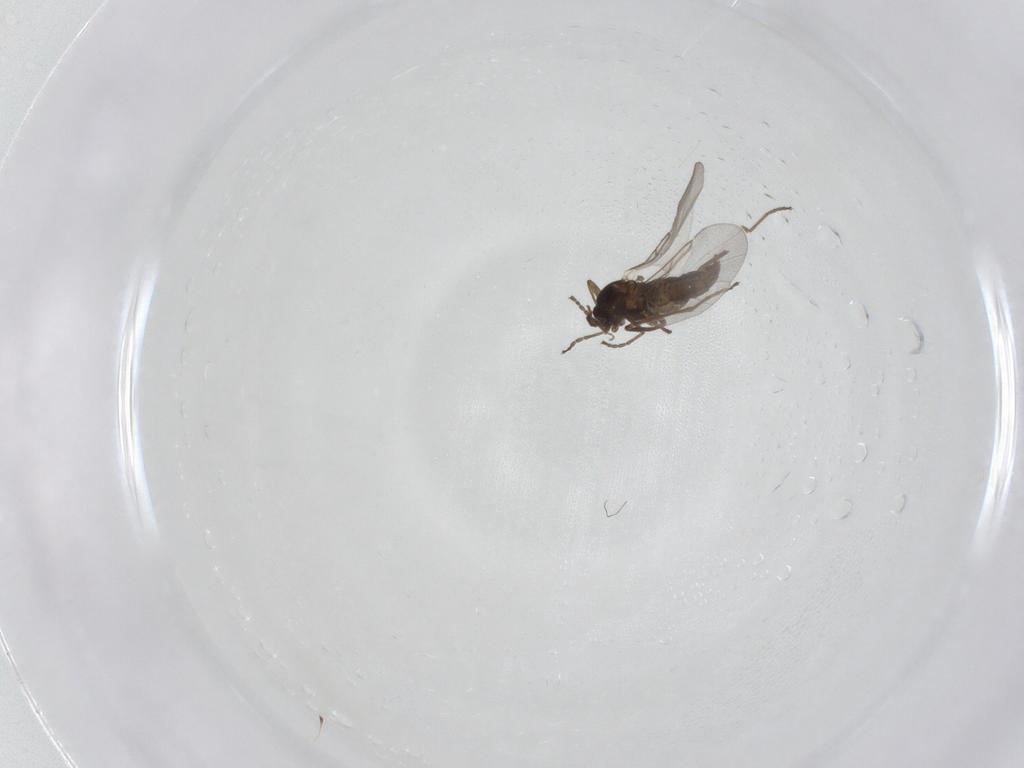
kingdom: Animalia
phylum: Arthropoda
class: Insecta
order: Diptera
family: Cecidomyiidae
